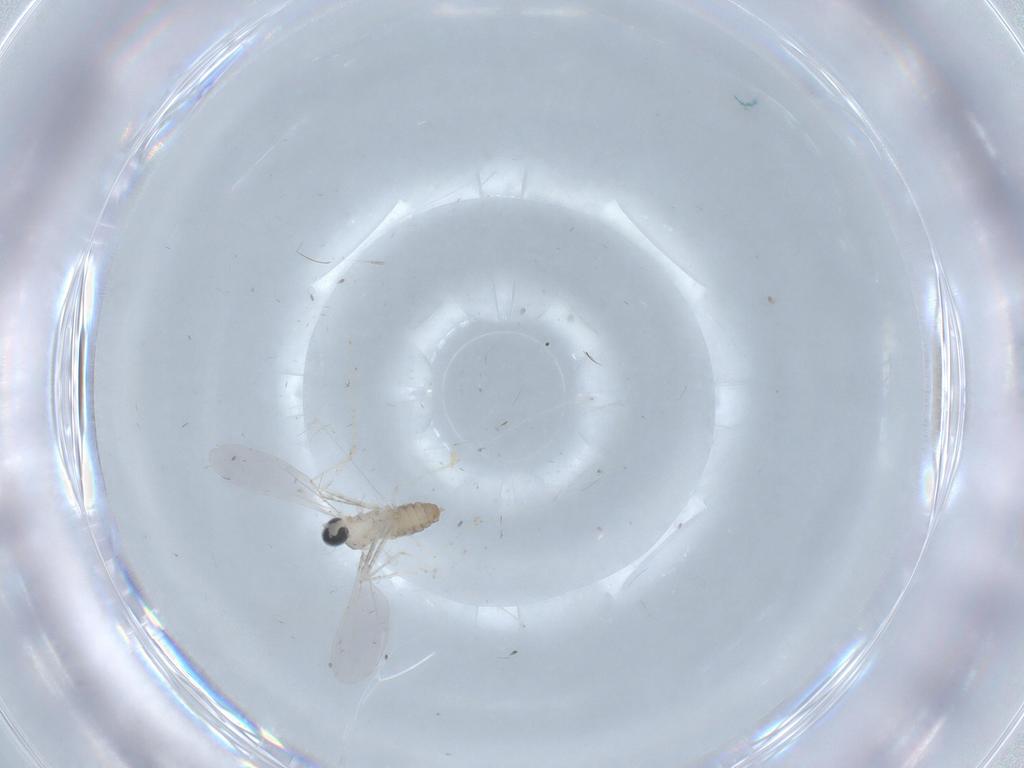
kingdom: Animalia
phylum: Arthropoda
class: Insecta
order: Diptera
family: Cecidomyiidae
